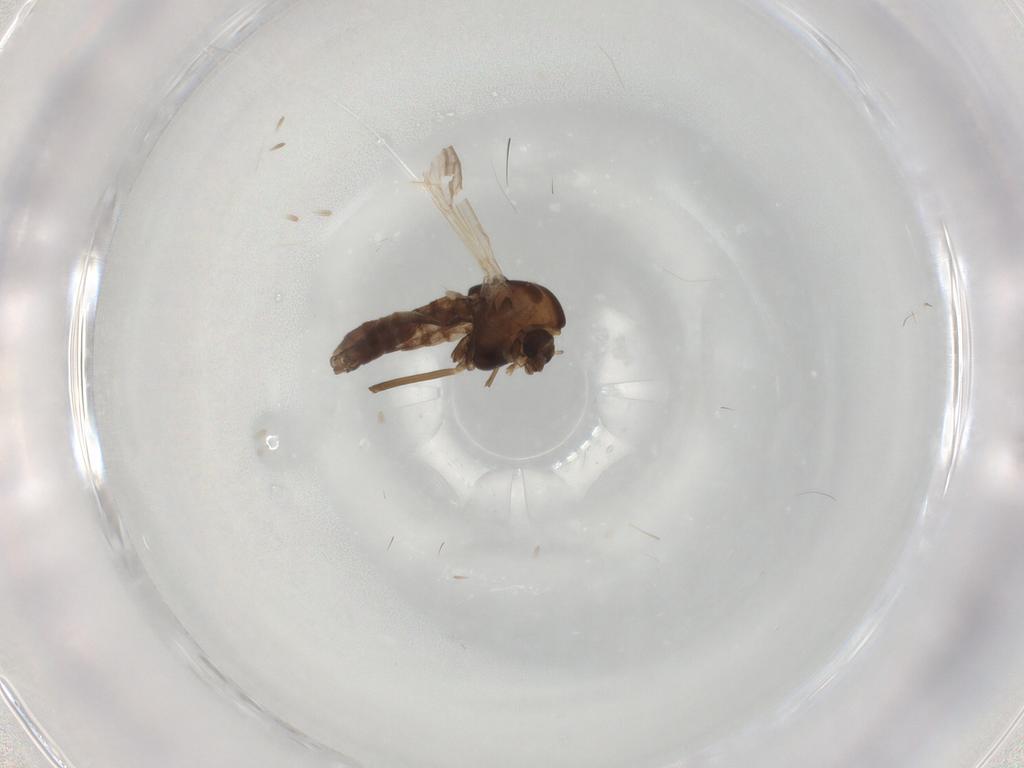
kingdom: Animalia
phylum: Arthropoda
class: Insecta
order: Diptera
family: Chironomidae
